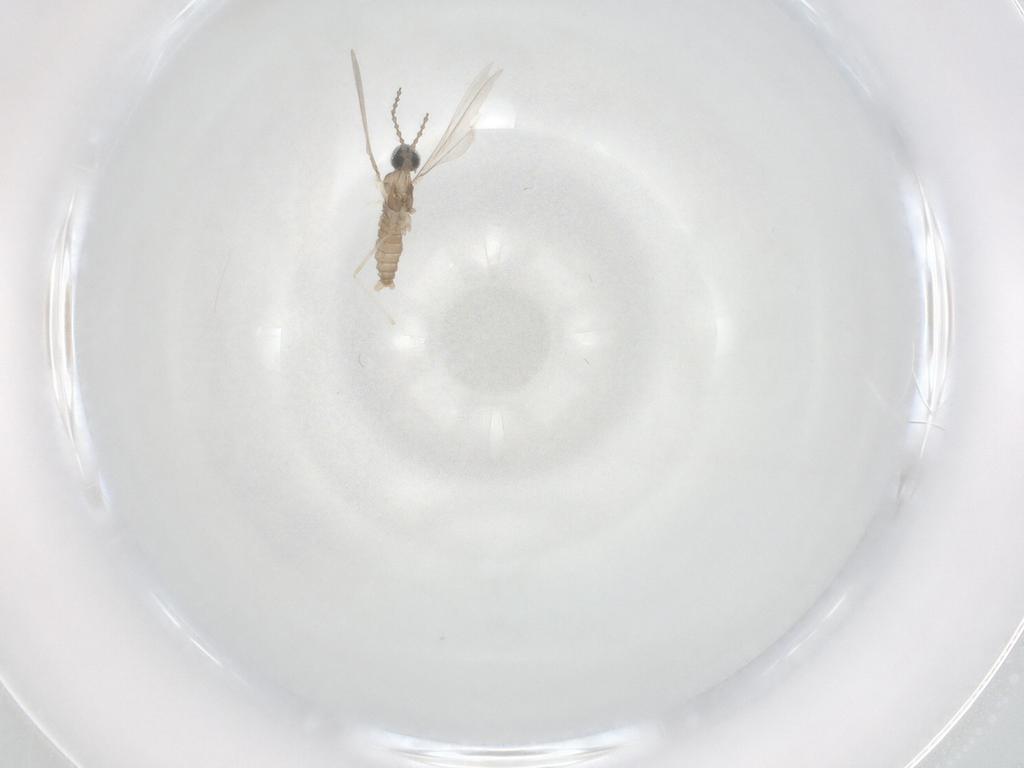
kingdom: Animalia
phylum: Arthropoda
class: Insecta
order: Diptera
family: Cecidomyiidae
